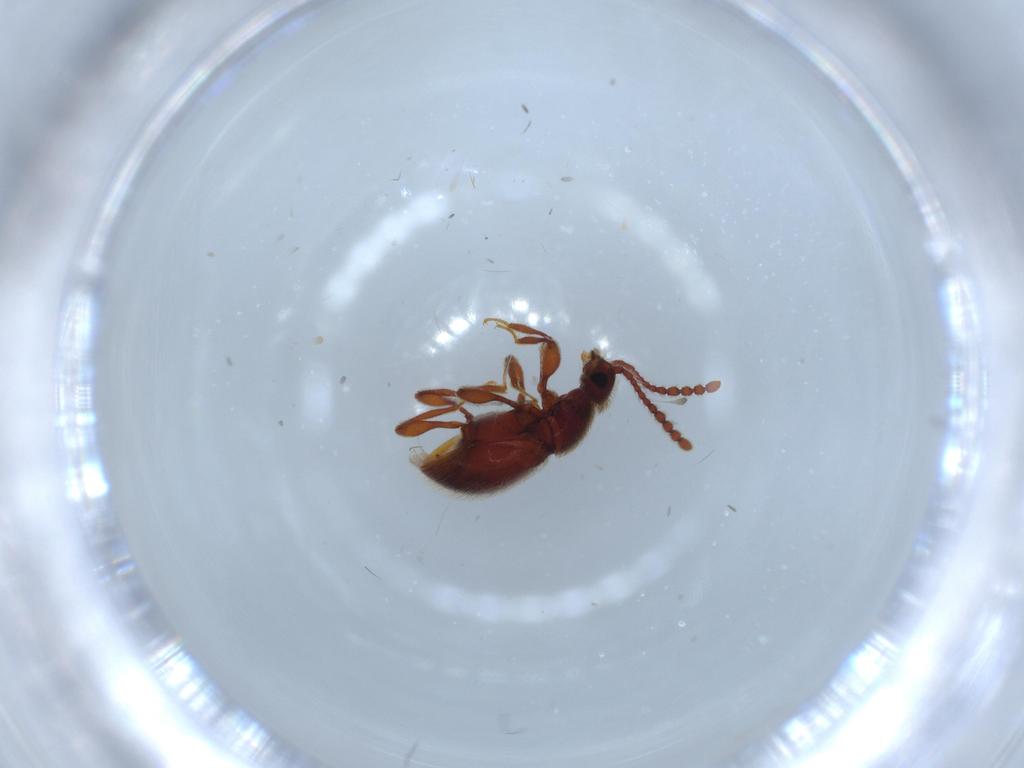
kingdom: Animalia
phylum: Arthropoda
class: Insecta
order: Coleoptera
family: Staphylinidae
